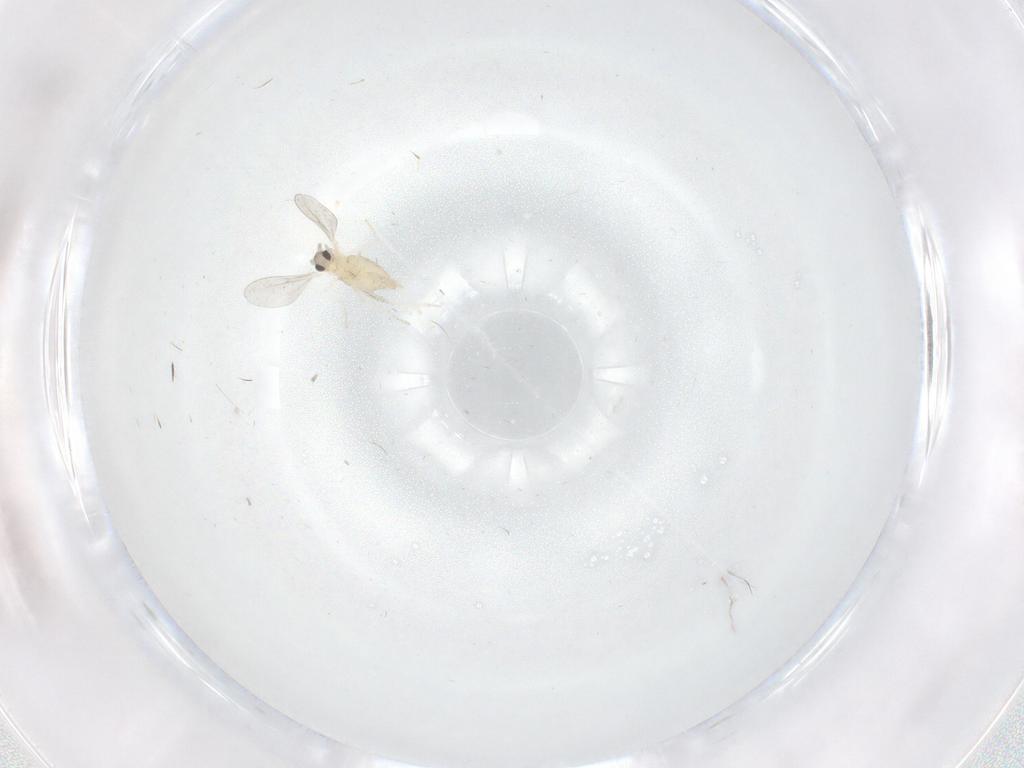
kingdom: Animalia
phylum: Arthropoda
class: Insecta
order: Diptera
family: Cecidomyiidae
